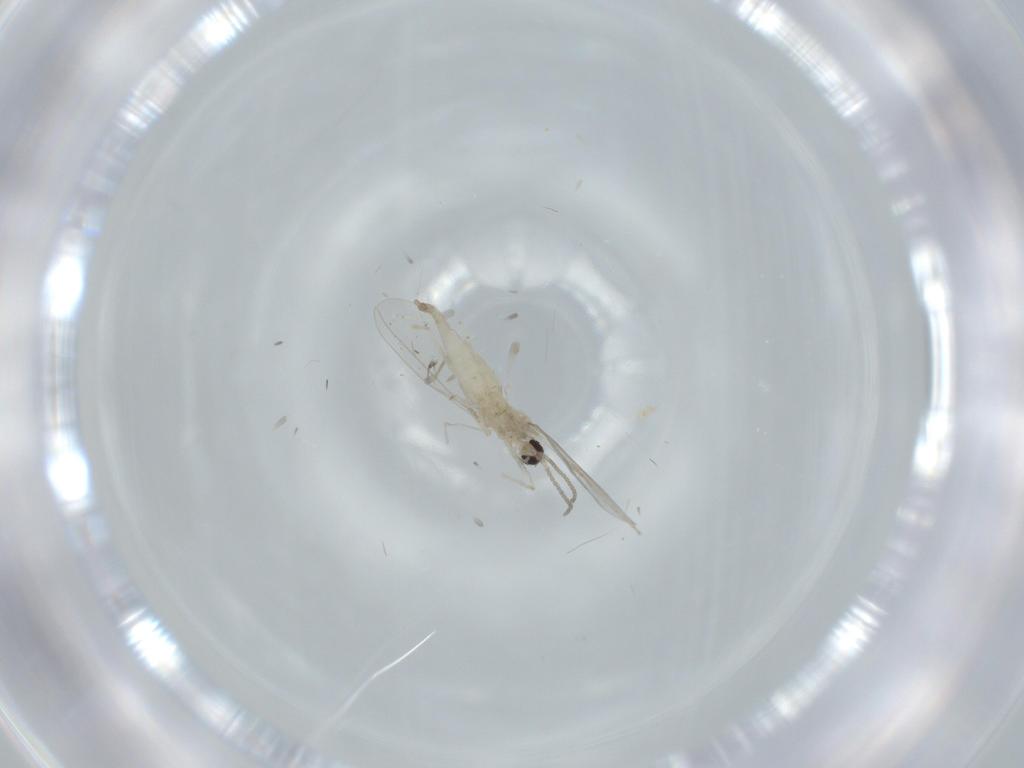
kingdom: Animalia
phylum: Arthropoda
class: Insecta
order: Diptera
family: Cecidomyiidae
